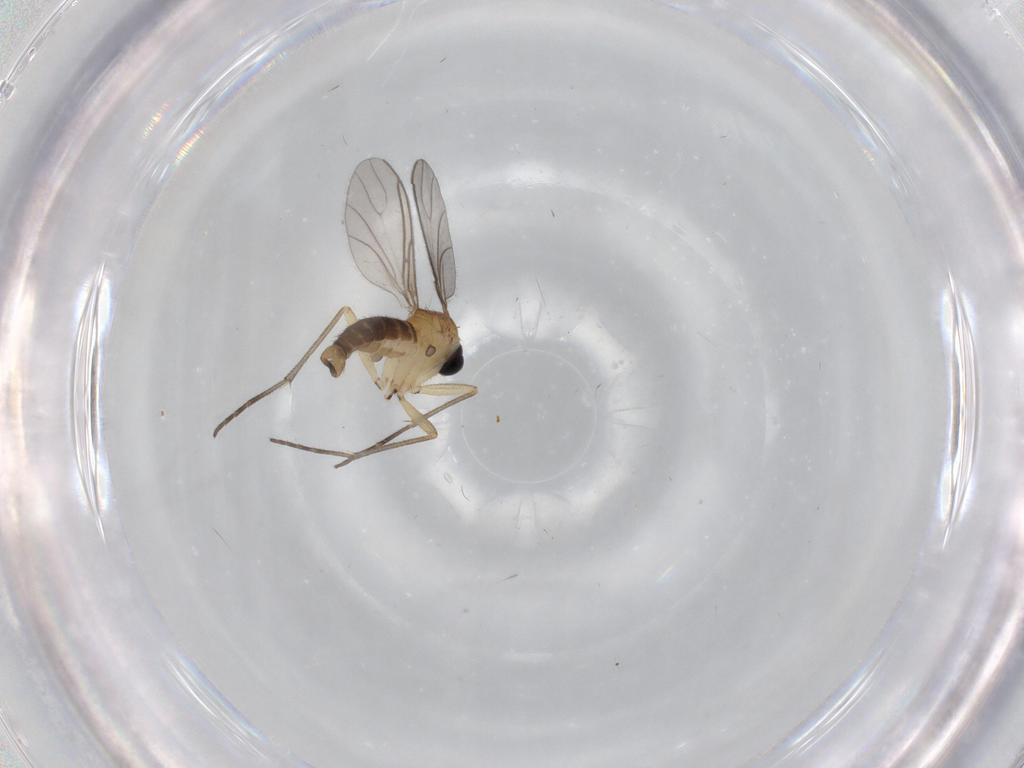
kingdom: Animalia
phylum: Arthropoda
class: Insecta
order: Diptera
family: Sciaridae
